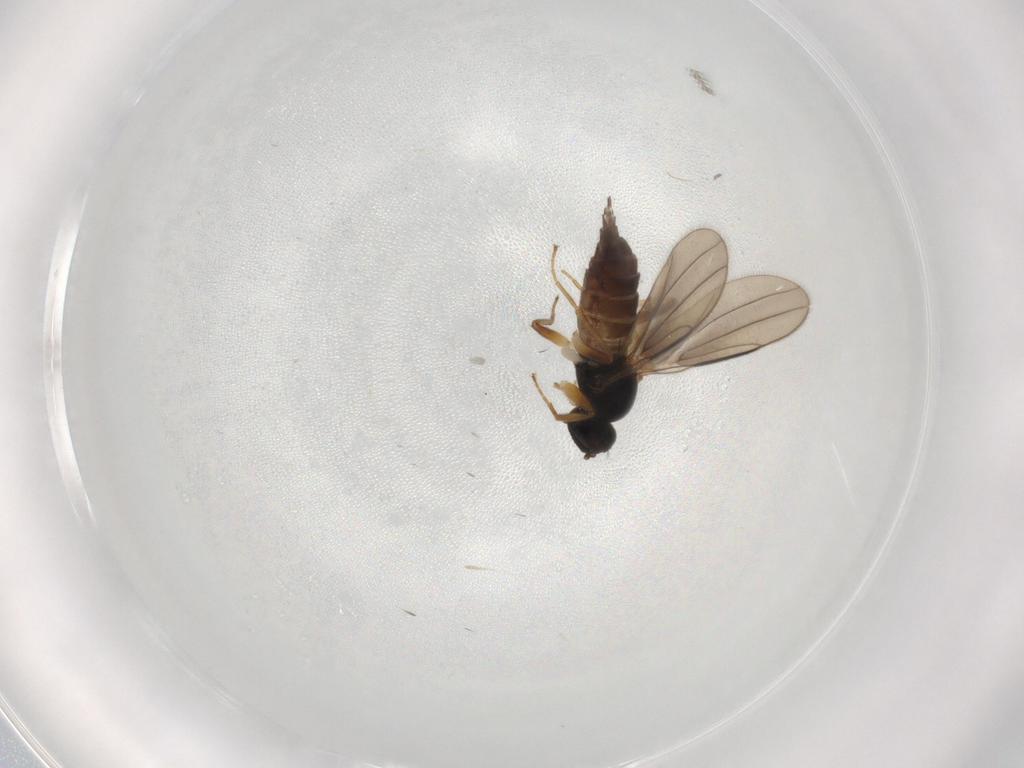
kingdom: Animalia
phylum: Arthropoda
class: Insecta
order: Diptera
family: Hybotidae
